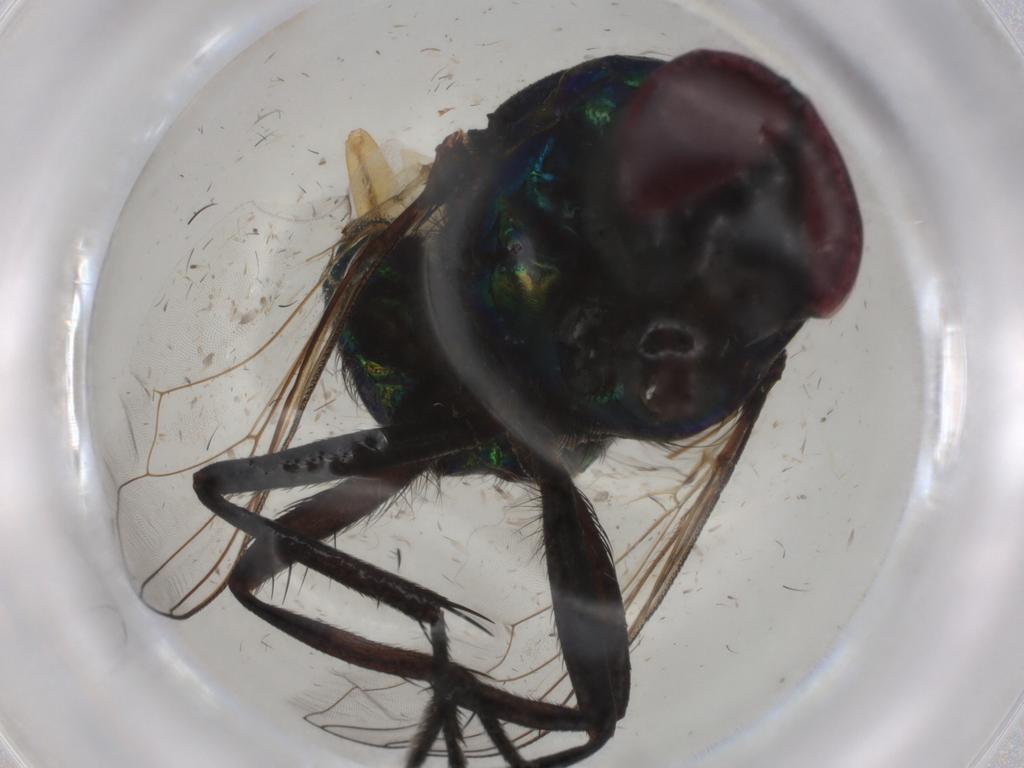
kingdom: Animalia
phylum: Arthropoda
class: Insecta
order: Diptera
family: Muscidae
